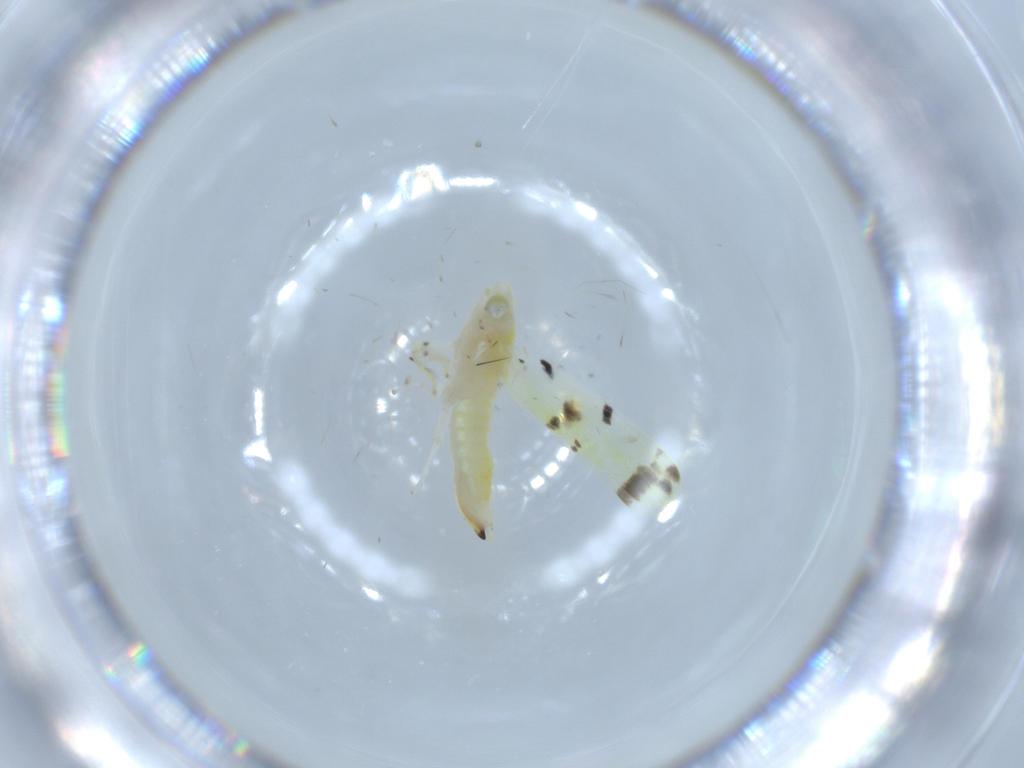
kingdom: Animalia
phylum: Arthropoda
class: Insecta
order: Hemiptera
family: Cicadellidae
